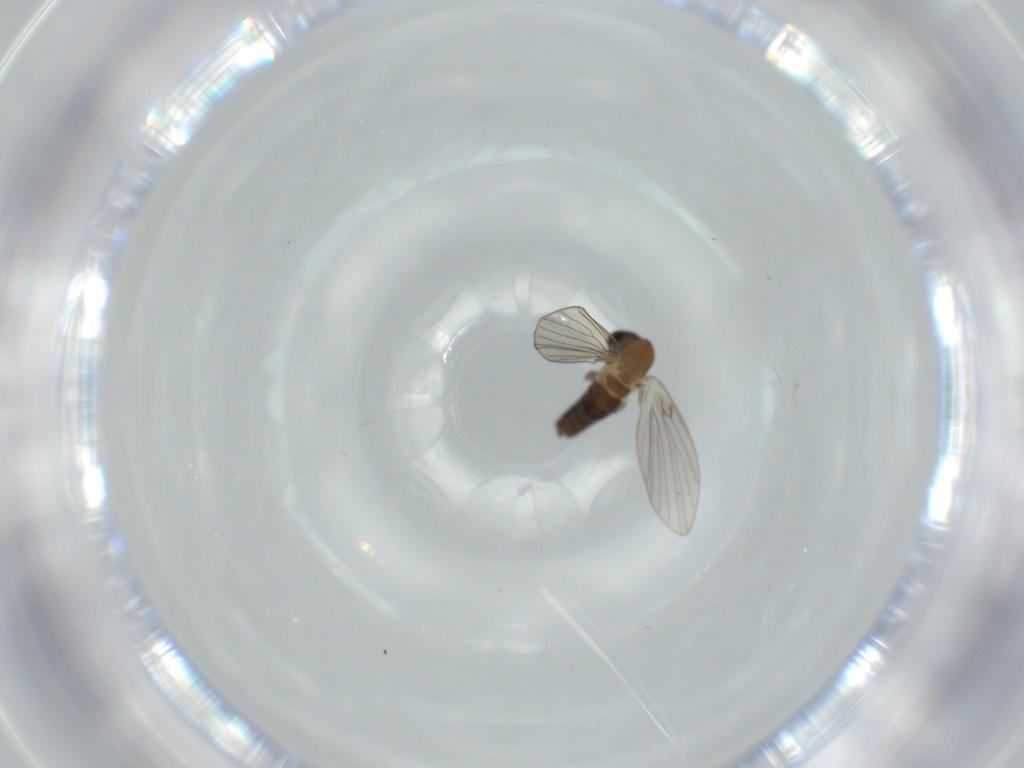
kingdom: Animalia
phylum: Arthropoda
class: Insecta
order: Diptera
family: Psychodidae
